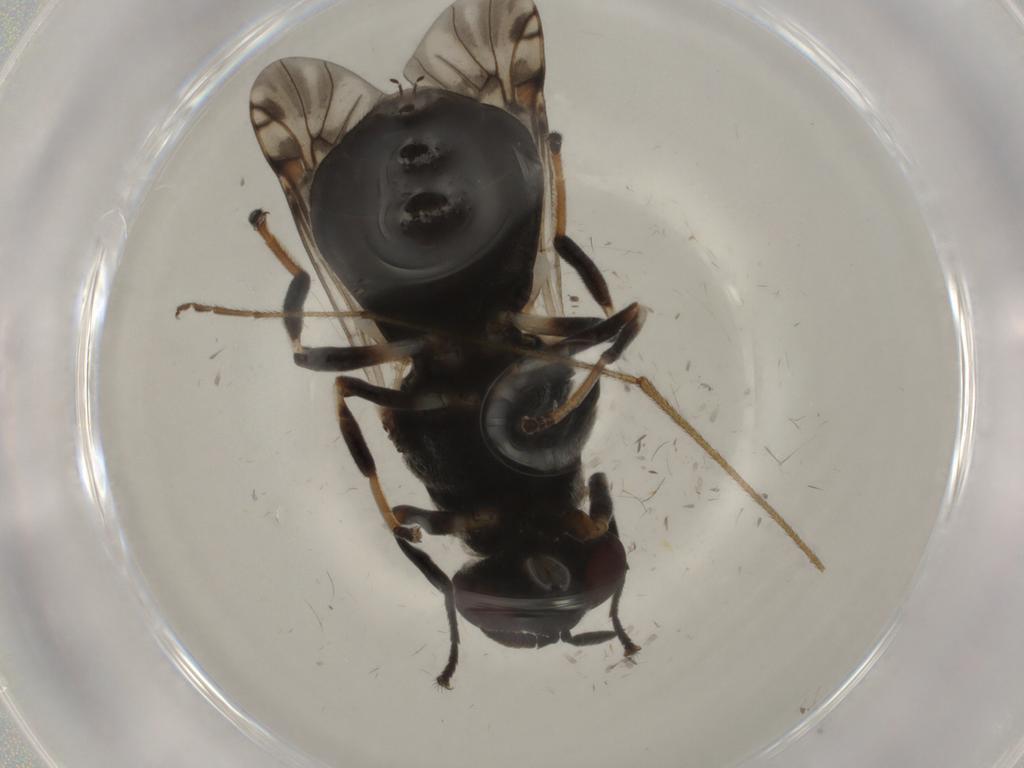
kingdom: Animalia
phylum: Arthropoda
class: Insecta
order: Diptera
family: Stratiomyidae
